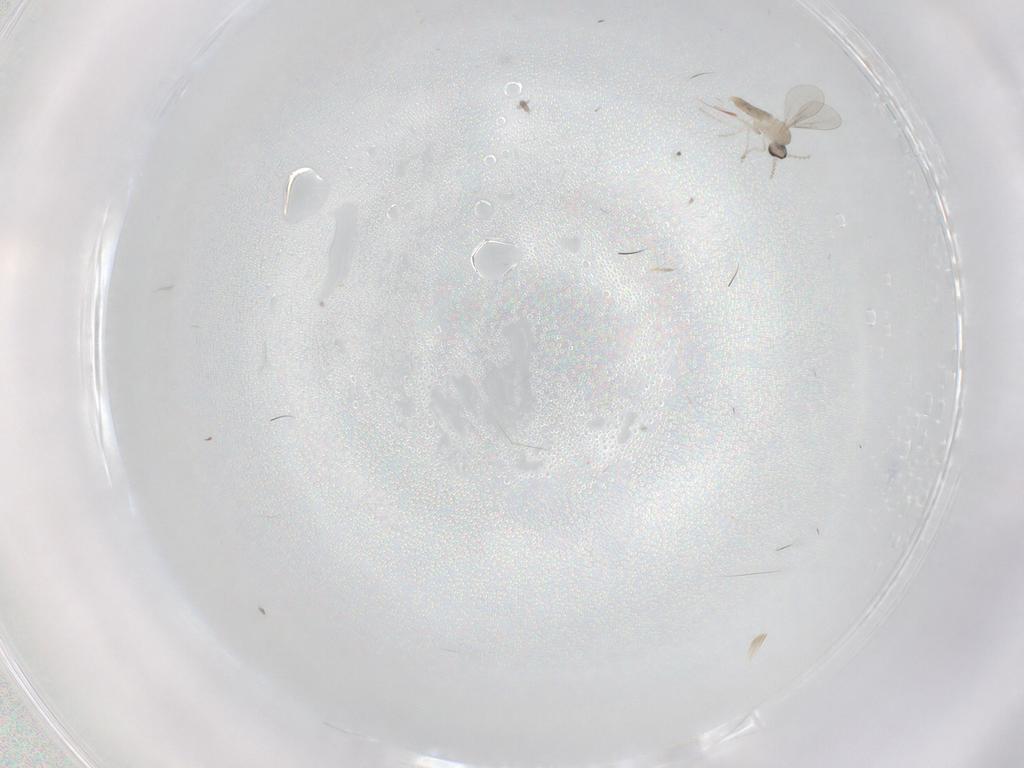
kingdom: Animalia
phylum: Arthropoda
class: Insecta
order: Diptera
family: Cecidomyiidae
